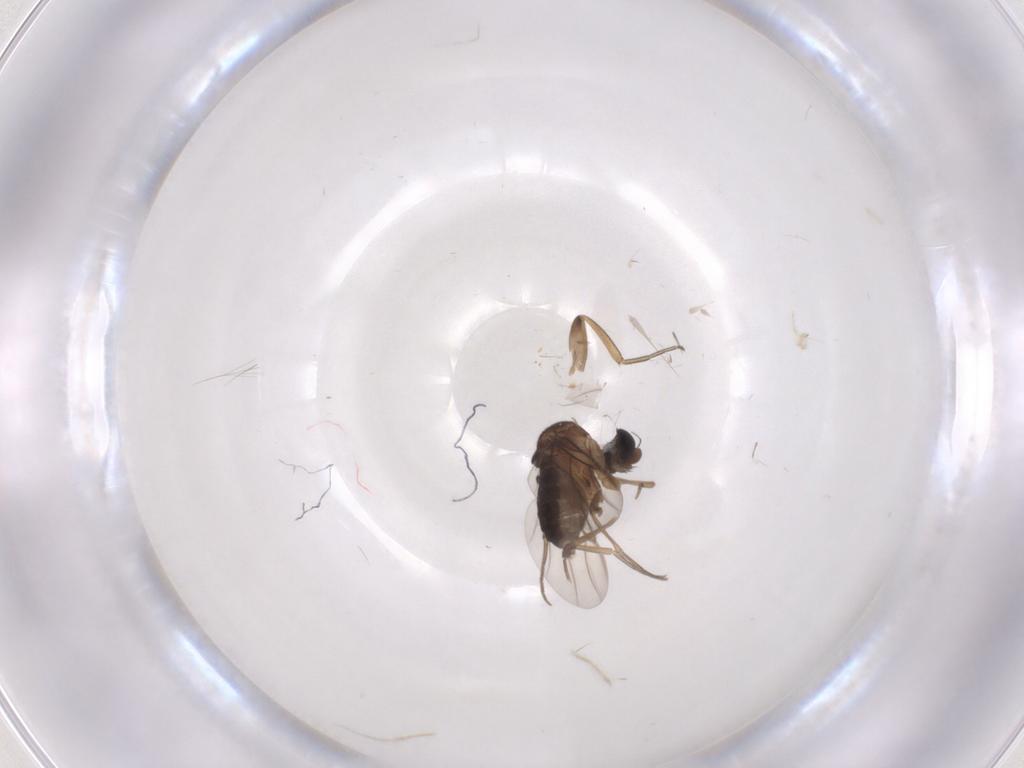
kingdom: Animalia
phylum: Arthropoda
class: Insecta
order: Diptera
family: Phoridae
